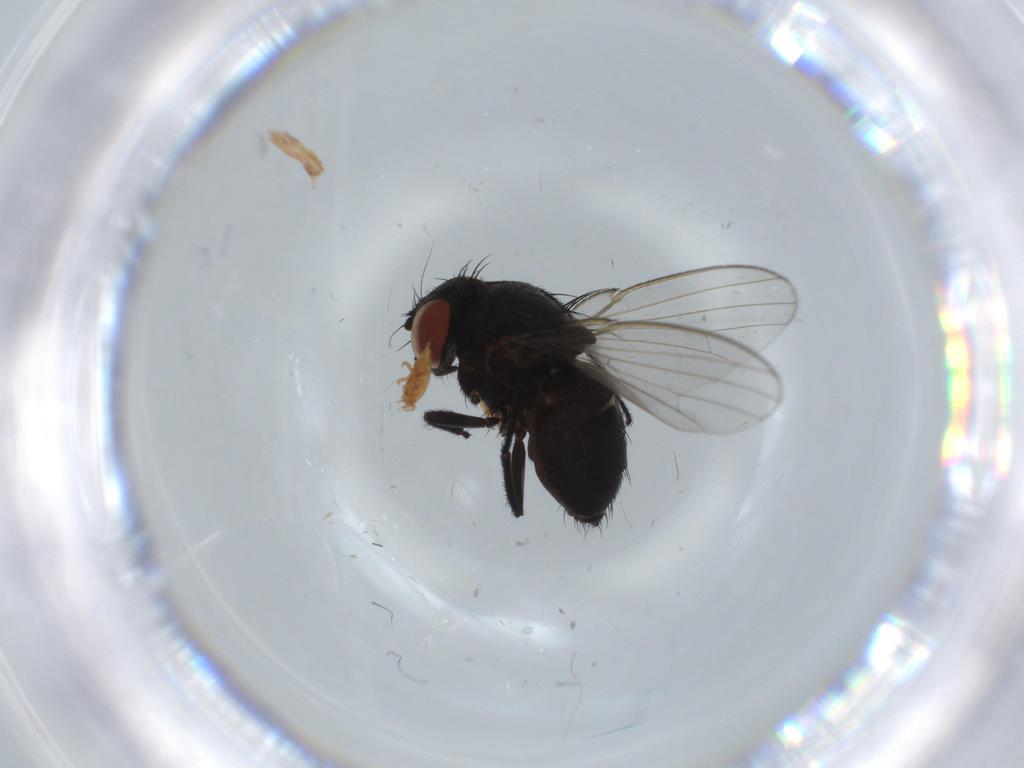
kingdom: Animalia
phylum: Arthropoda
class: Insecta
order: Diptera
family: Milichiidae
